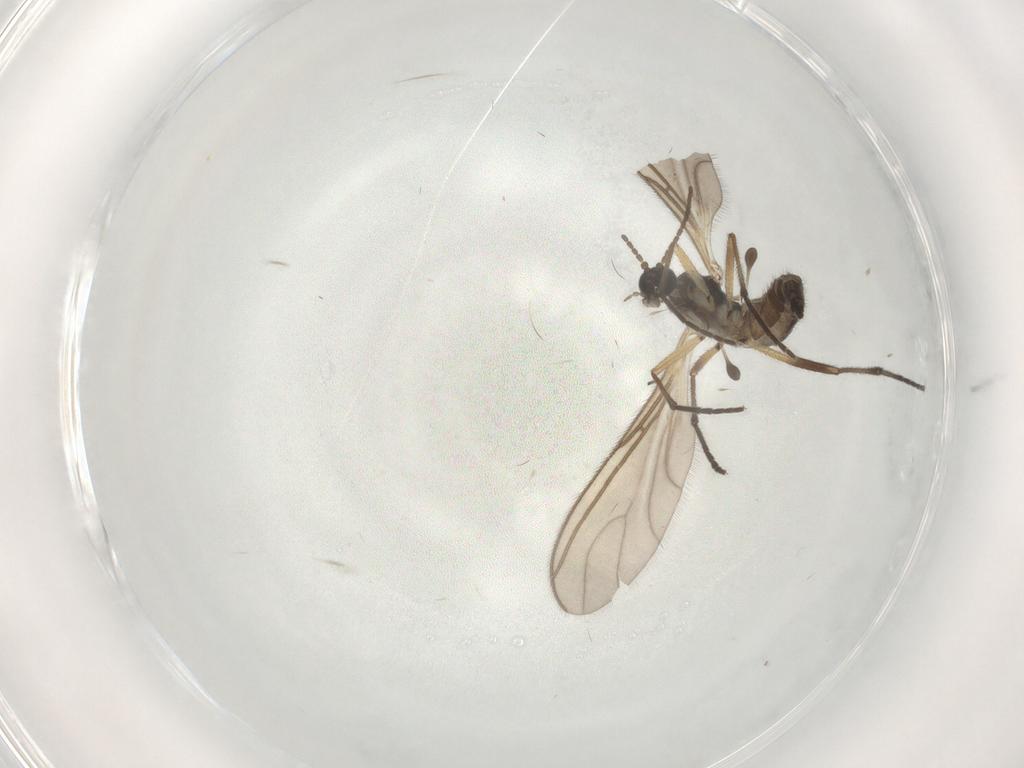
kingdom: Animalia
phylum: Arthropoda
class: Insecta
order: Diptera
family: Sciaridae
